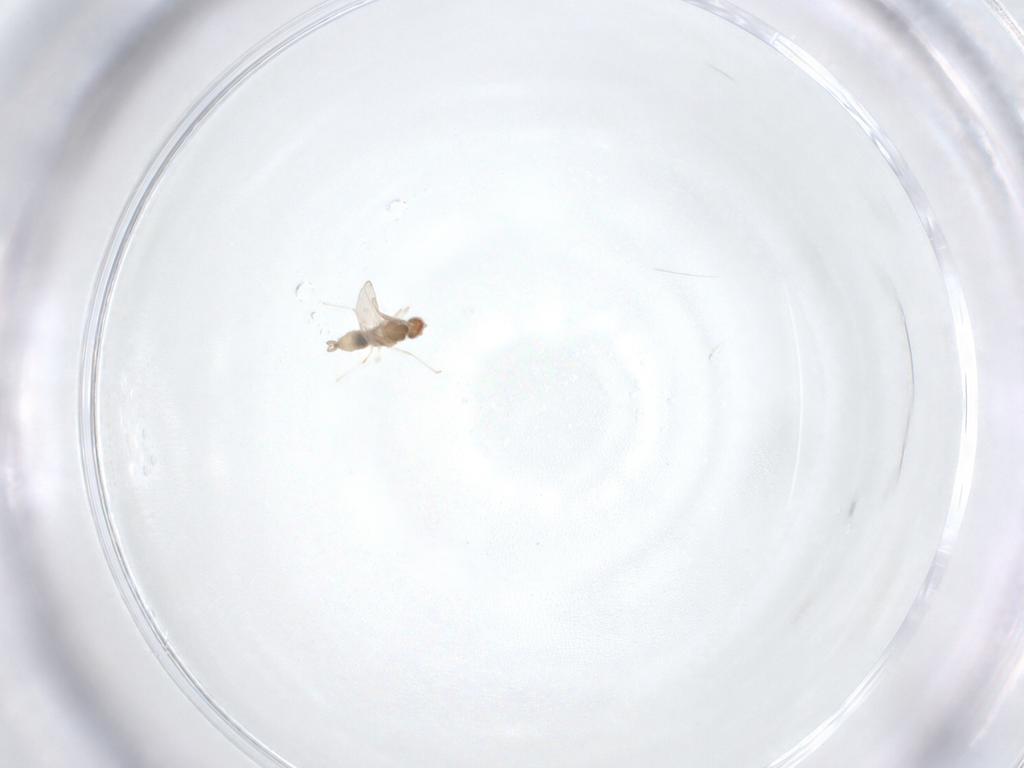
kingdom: Animalia
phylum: Arthropoda
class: Insecta
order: Diptera
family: Cecidomyiidae
